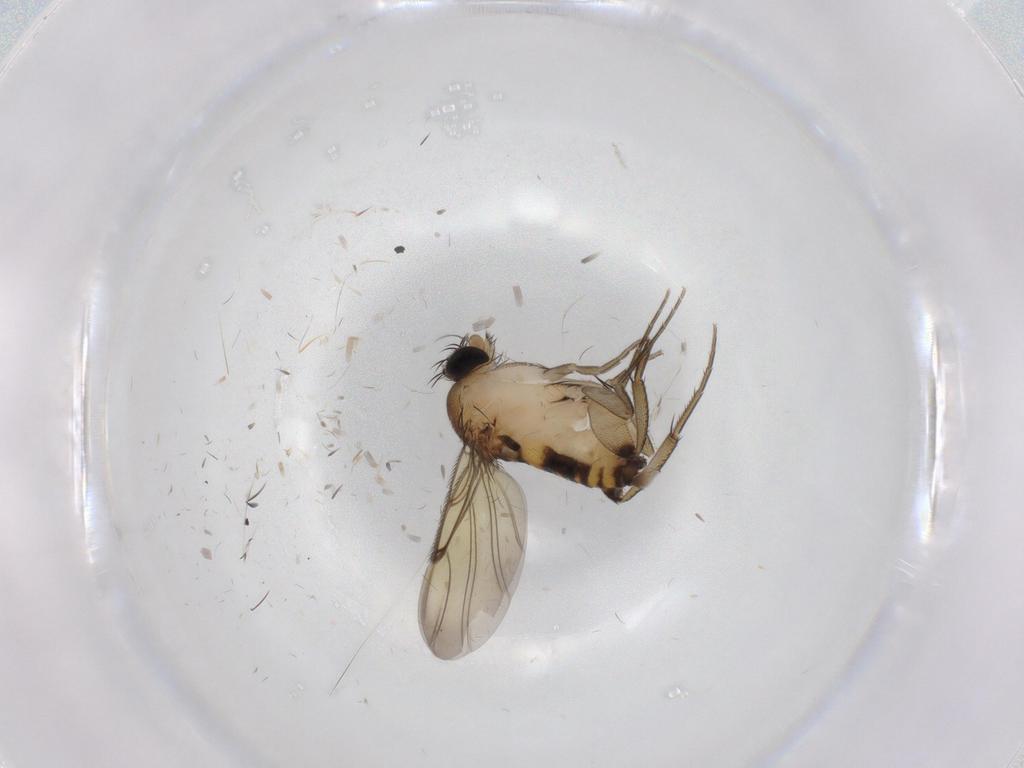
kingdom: Animalia
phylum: Arthropoda
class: Insecta
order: Diptera
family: Phoridae
